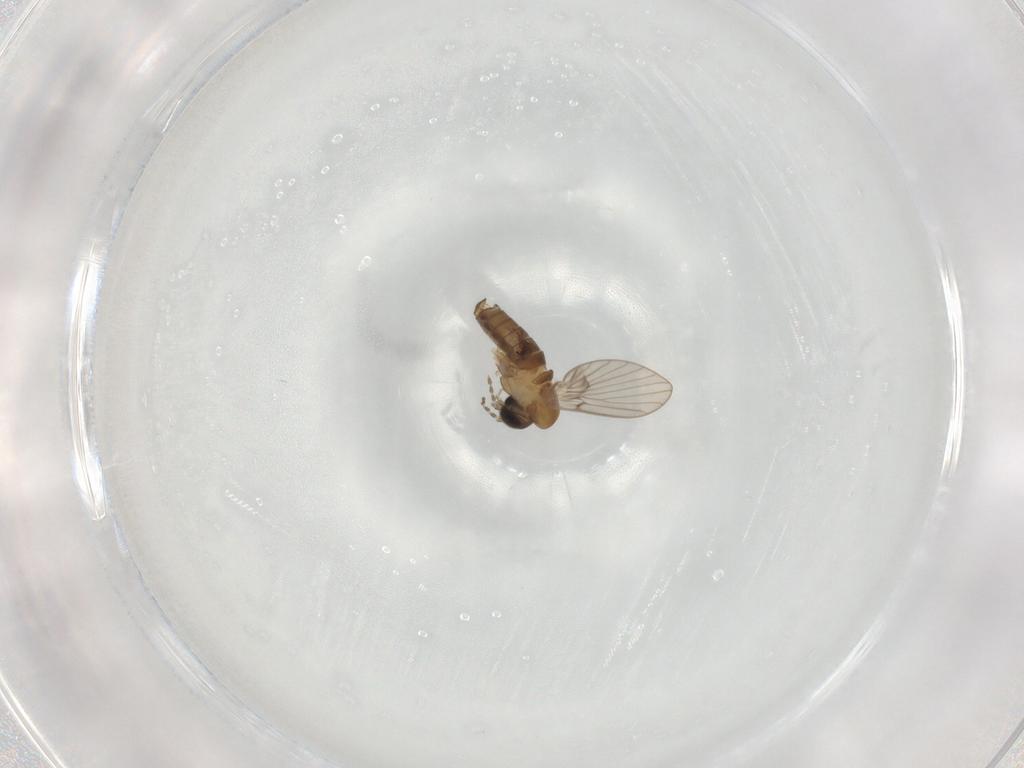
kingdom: Animalia
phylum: Arthropoda
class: Insecta
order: Diptera
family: Psychodidae
